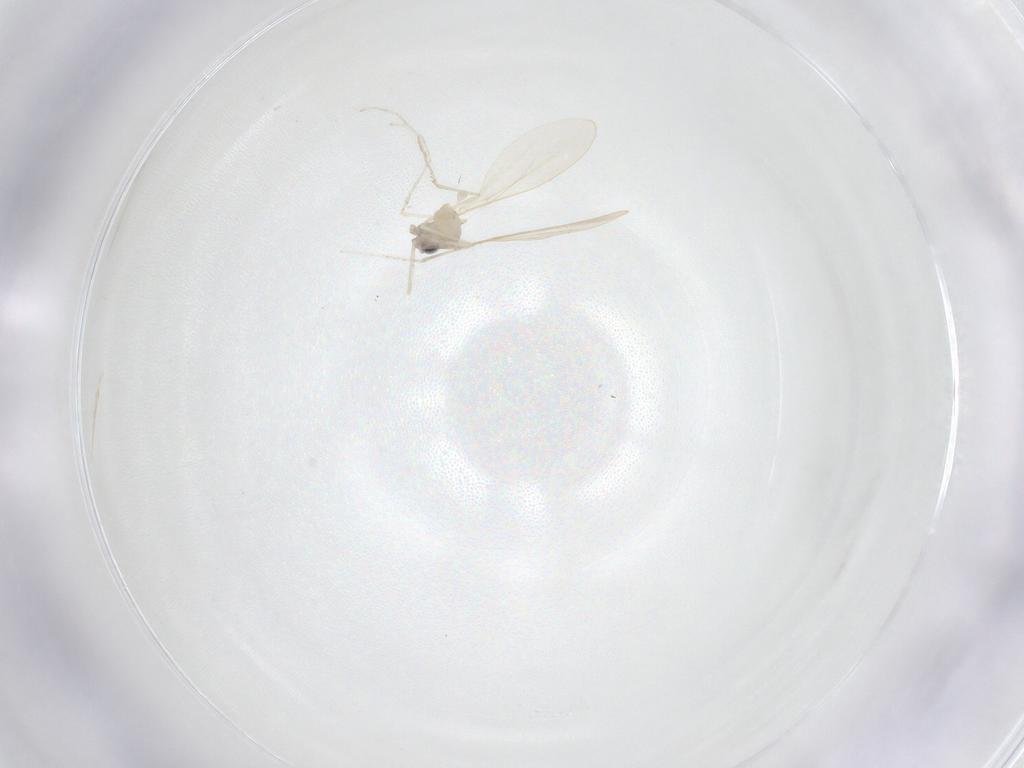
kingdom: Animalia
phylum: Arthropoda
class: Insecta
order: Diptera
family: Cecidomyiidae
